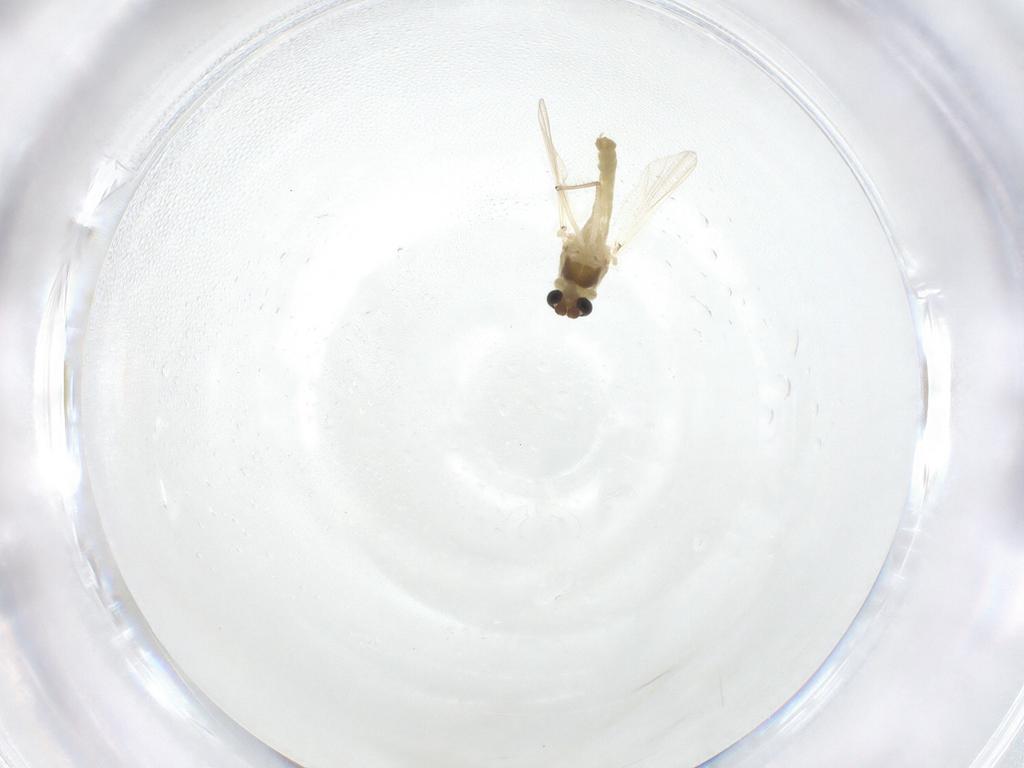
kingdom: Animalia
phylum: Arthropoda
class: Insecta
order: Diptera
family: Chironomidae
